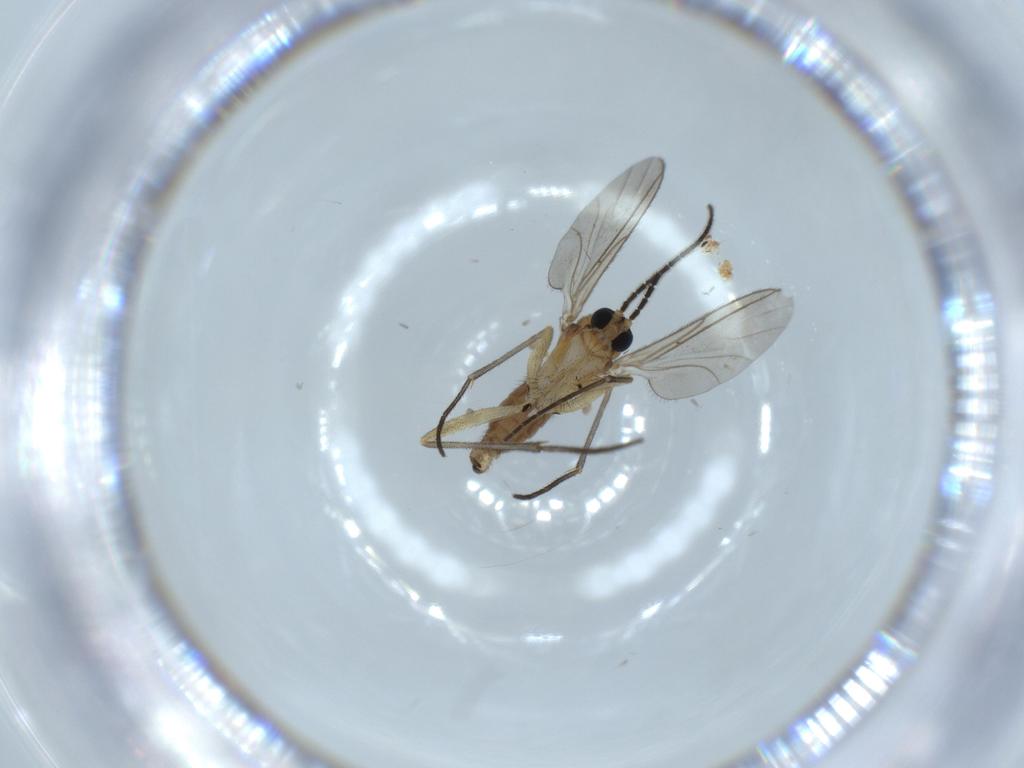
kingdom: Animalia
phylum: Arthropoda
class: Insecta
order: Diptera
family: Sciaridae
